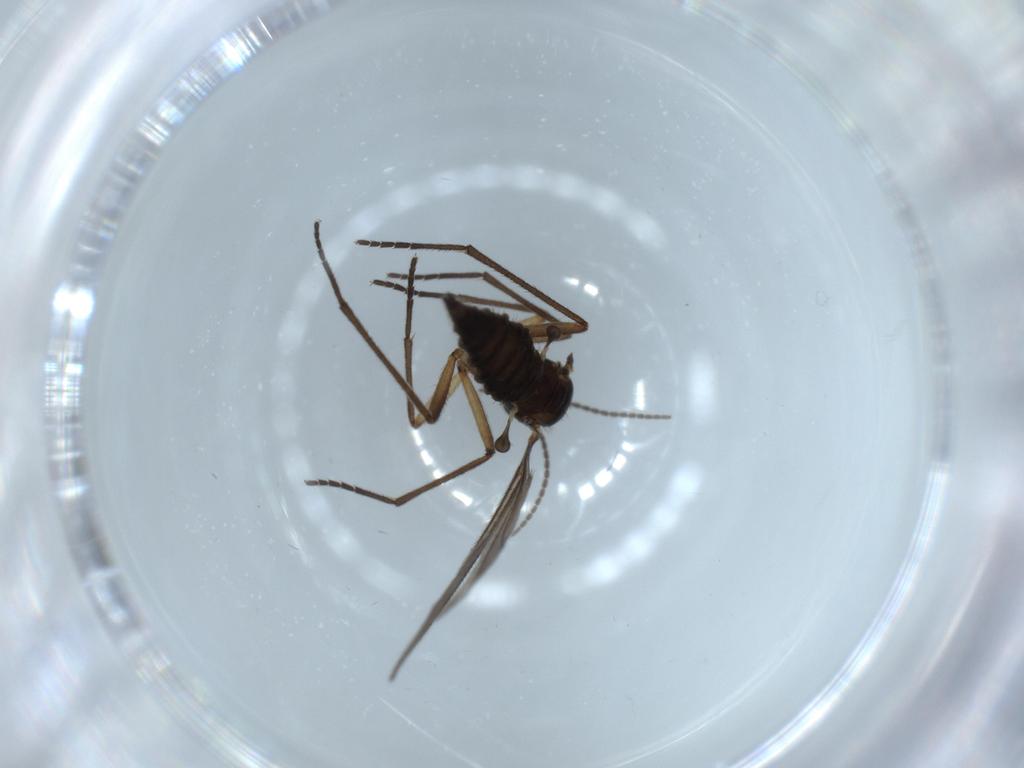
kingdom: Animalia
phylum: Arthropoda
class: Insecta
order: Diptera
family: Sciaridae
